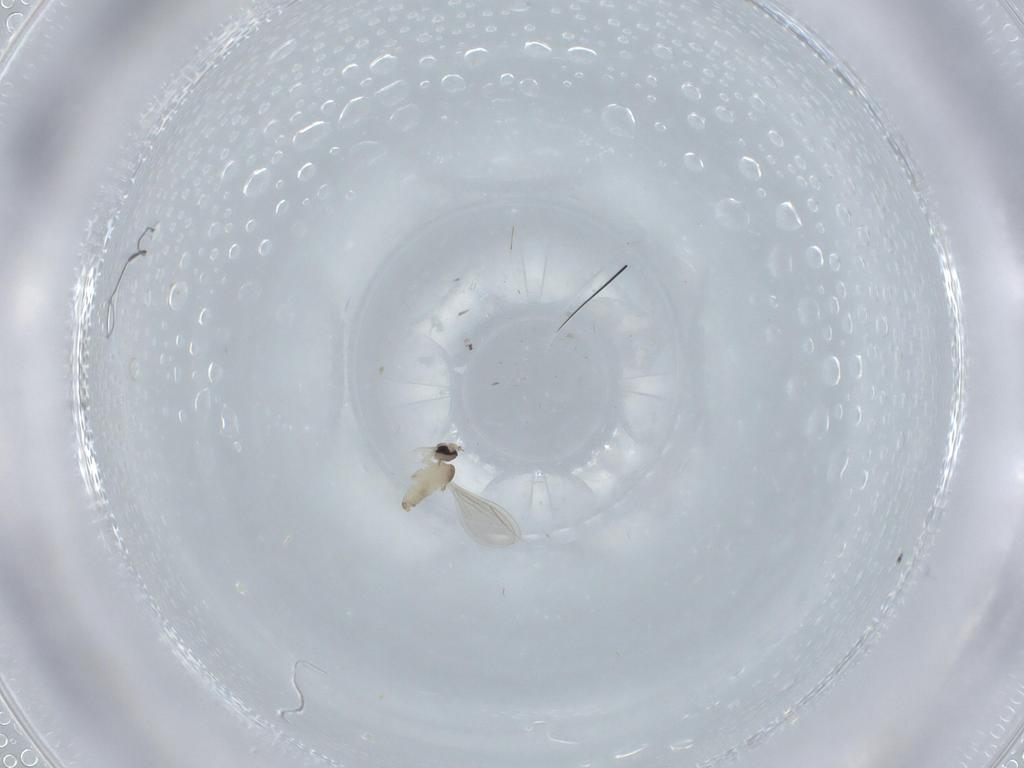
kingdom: Animalia
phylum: Arthropoda
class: Insecta
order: Diptera
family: Cecidomyiidae
